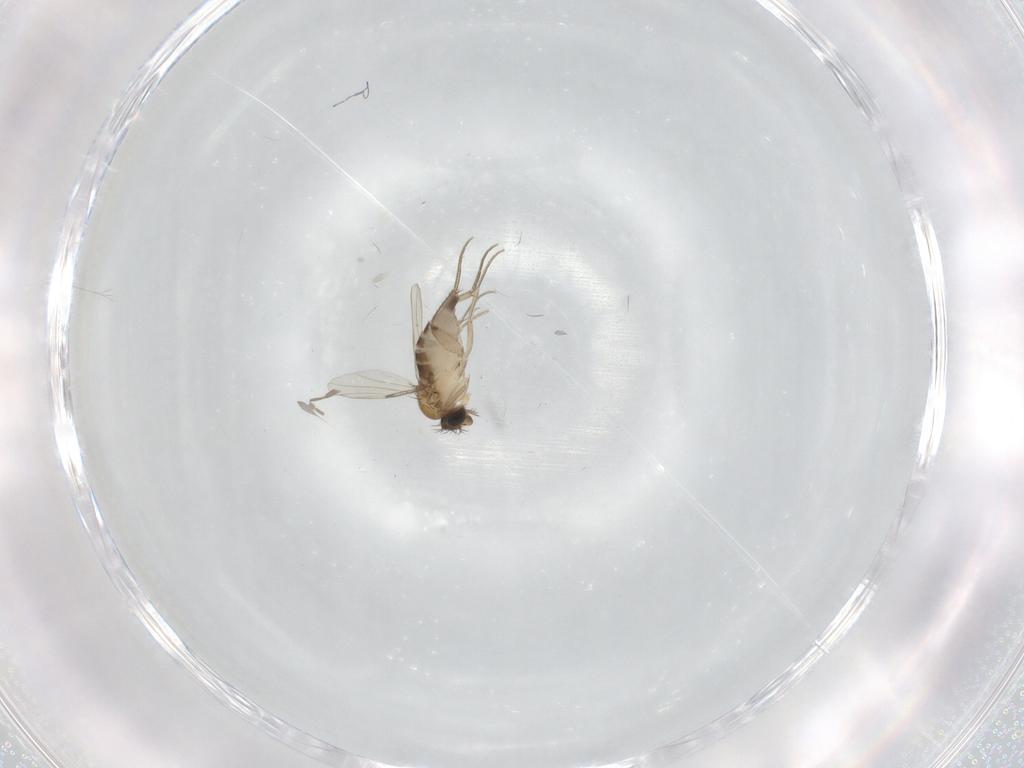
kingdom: Animalia
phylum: Arthropoda
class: Insecta
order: Diptera
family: Phoridae
